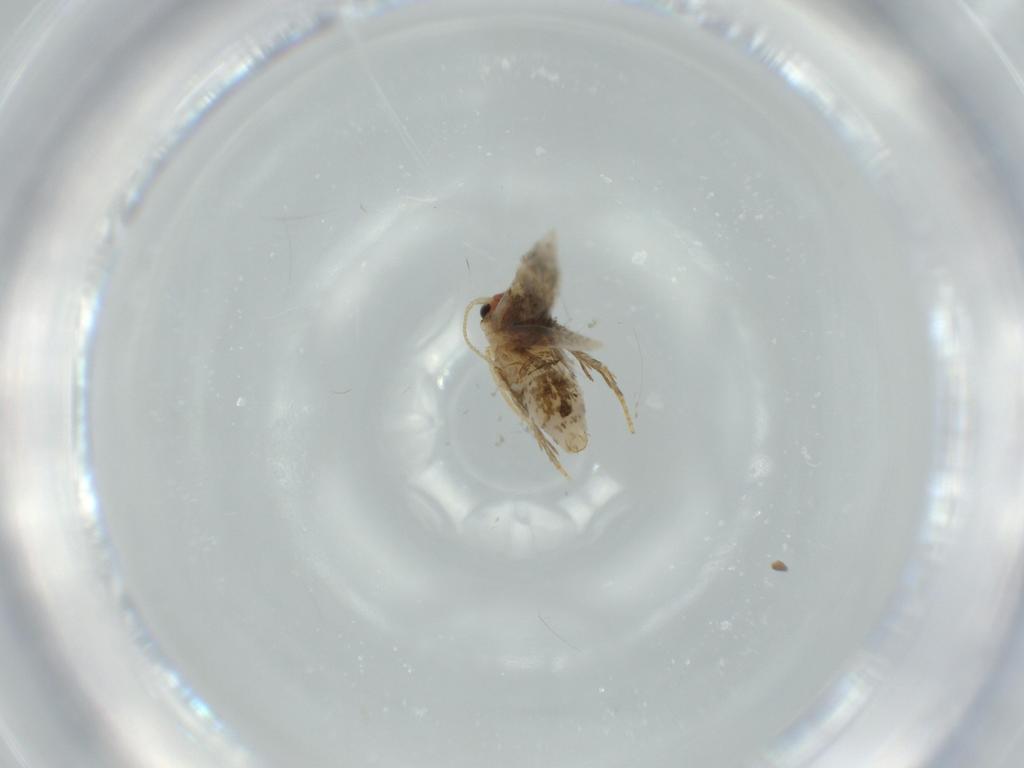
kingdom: Animalia
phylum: Arthropoda
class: Insecta
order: Lepidoptera
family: Nepticulidae
